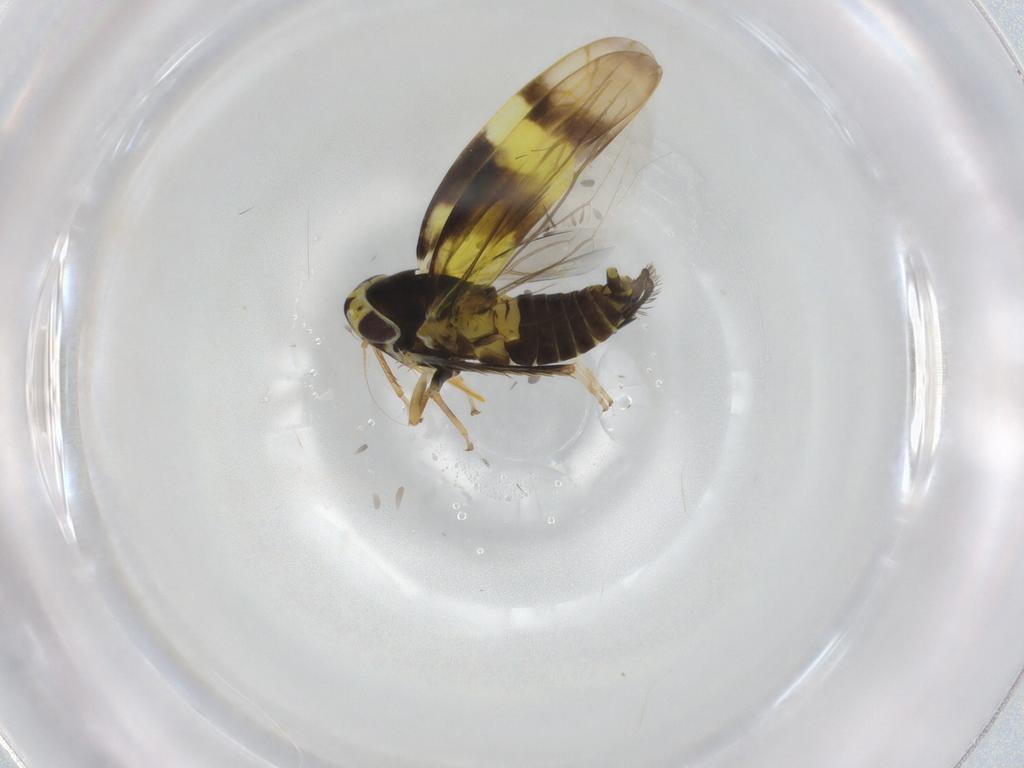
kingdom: Animalia
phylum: Arthropoda
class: Insecta
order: Hemiptera
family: Cicadellidae
